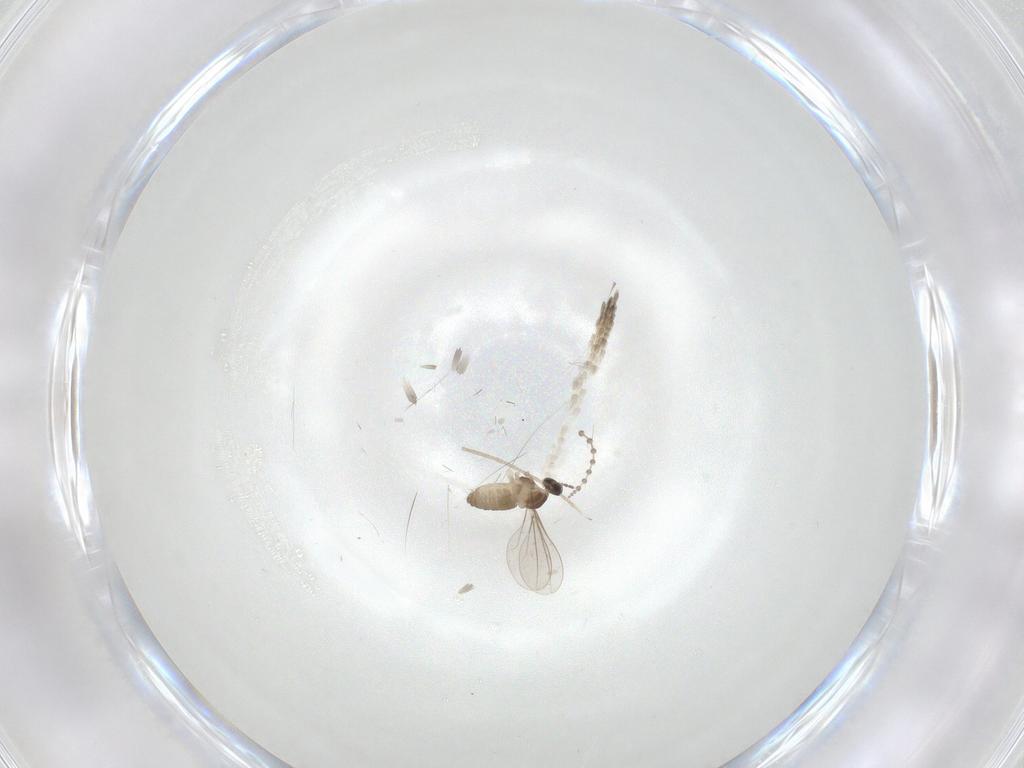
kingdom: Animalia
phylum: Arthropoda
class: Insecta
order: Diptera
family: Cecidomyiidae
